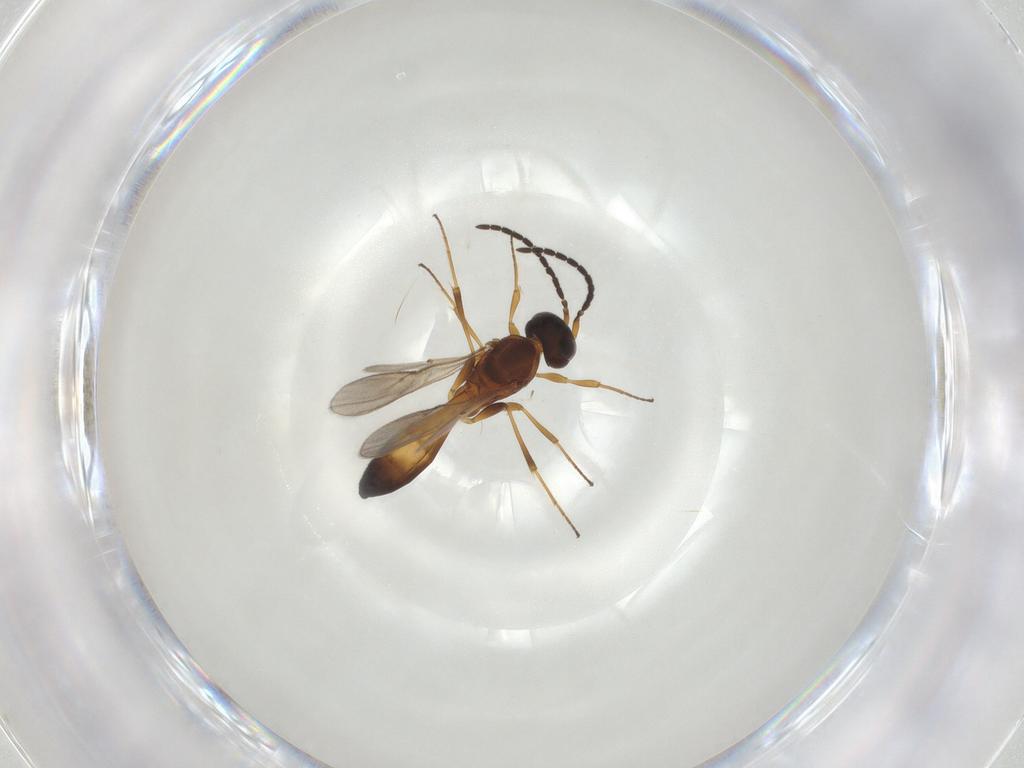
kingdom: Animalia
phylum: Arthropoda
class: Insecta
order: Hymenoptera
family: Scelionidae
